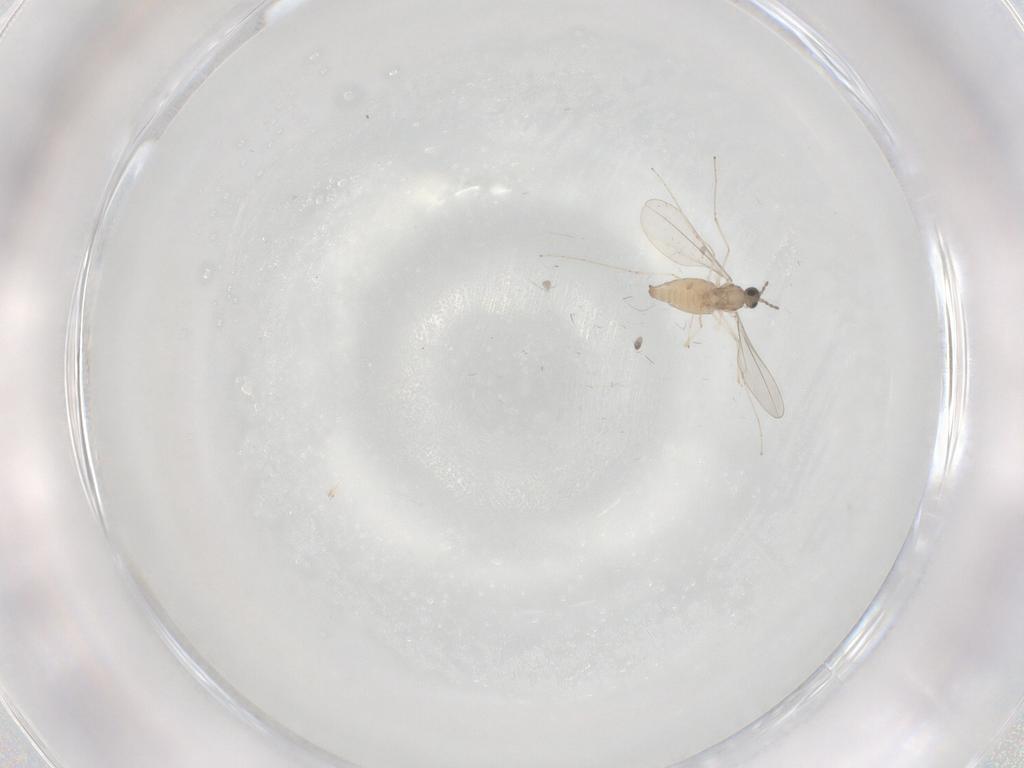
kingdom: Animalia
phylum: Arthropoda
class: Insecta
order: Diptera
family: Cecidomyiidae
